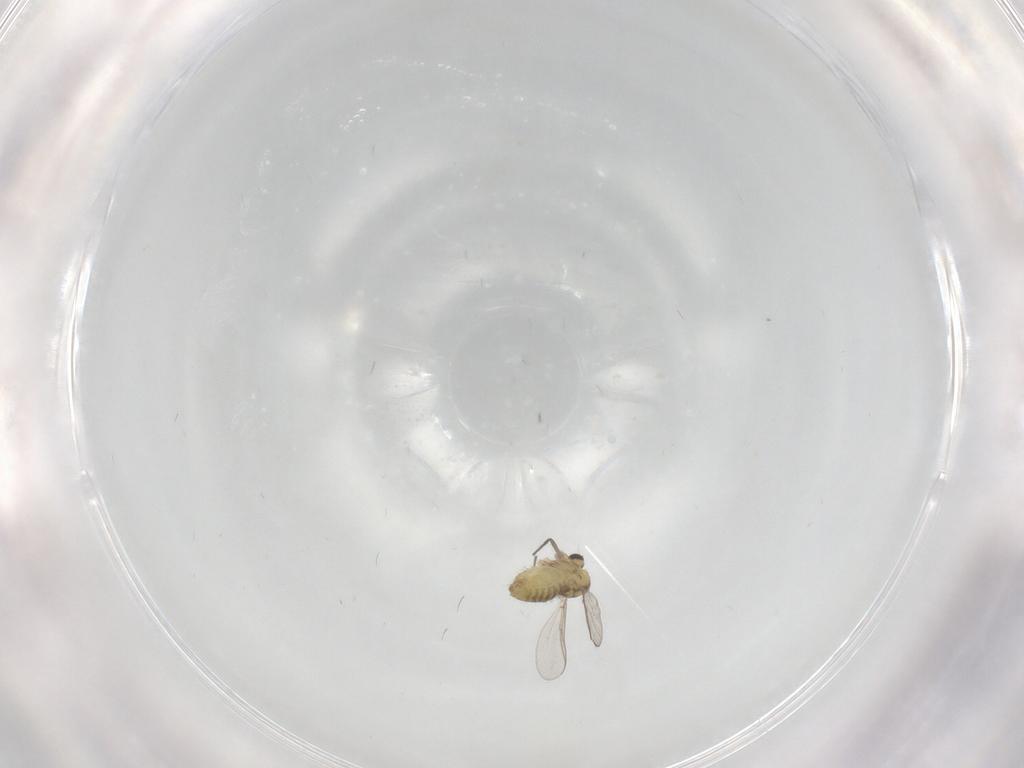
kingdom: Animalia
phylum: Arthropoda
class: Insecta
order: Diptera
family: Chironomidae
